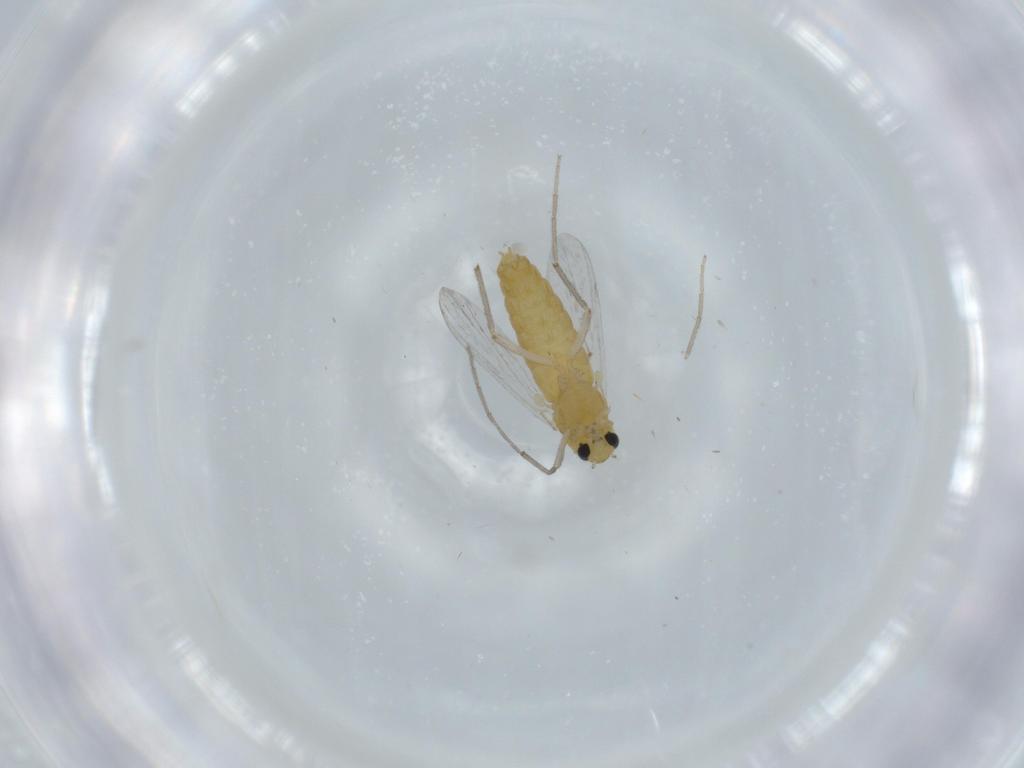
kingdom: Animalia
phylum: Arthropoda
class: Insecta
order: Diptera
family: Chironomidae
